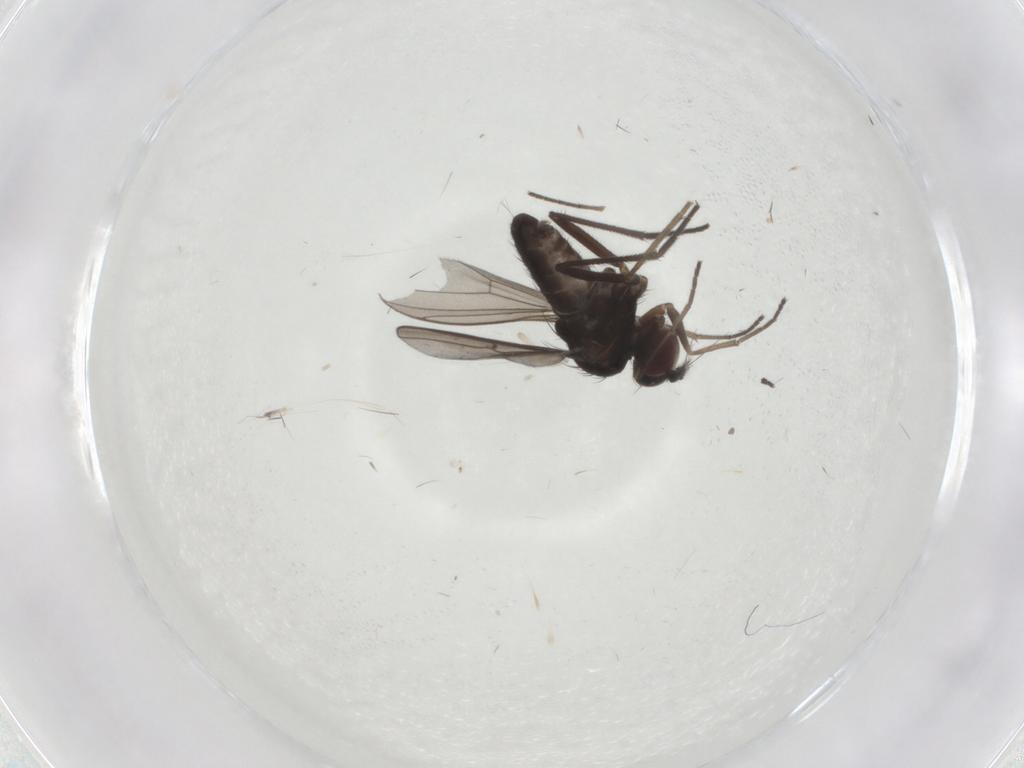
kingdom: Animalia
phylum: Arthropoda
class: Insecta
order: Diptera
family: Dolichopodidae
